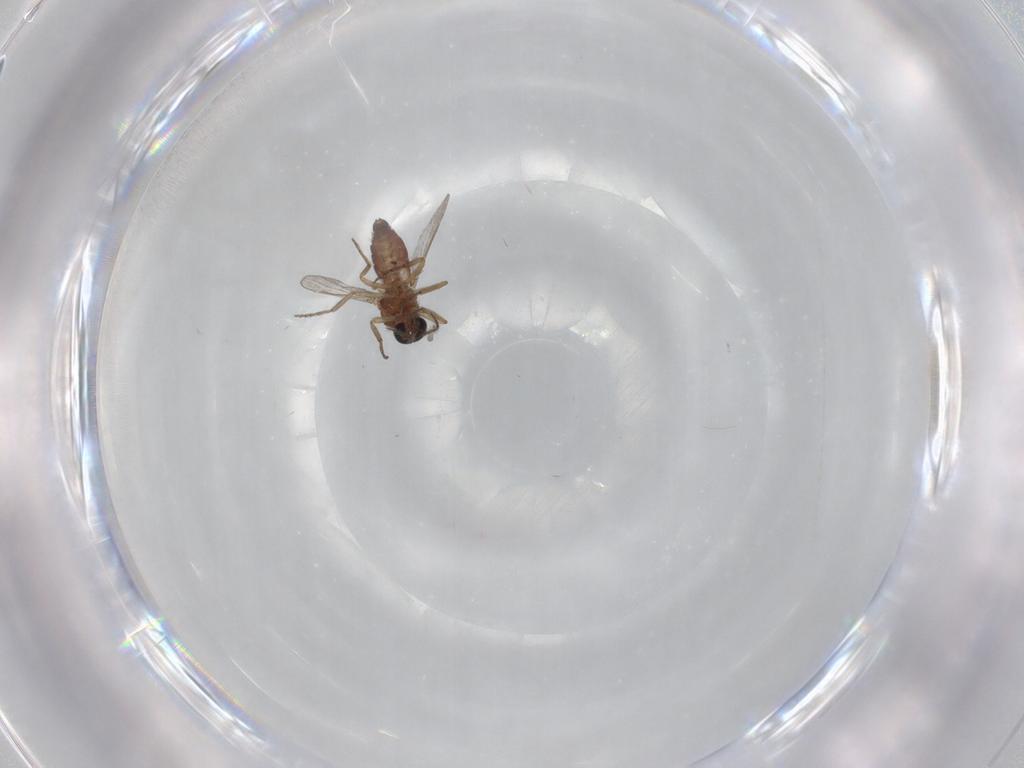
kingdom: Animalia
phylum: Arthropoda
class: Insecta
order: Diptera
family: Ceratopogonidae
